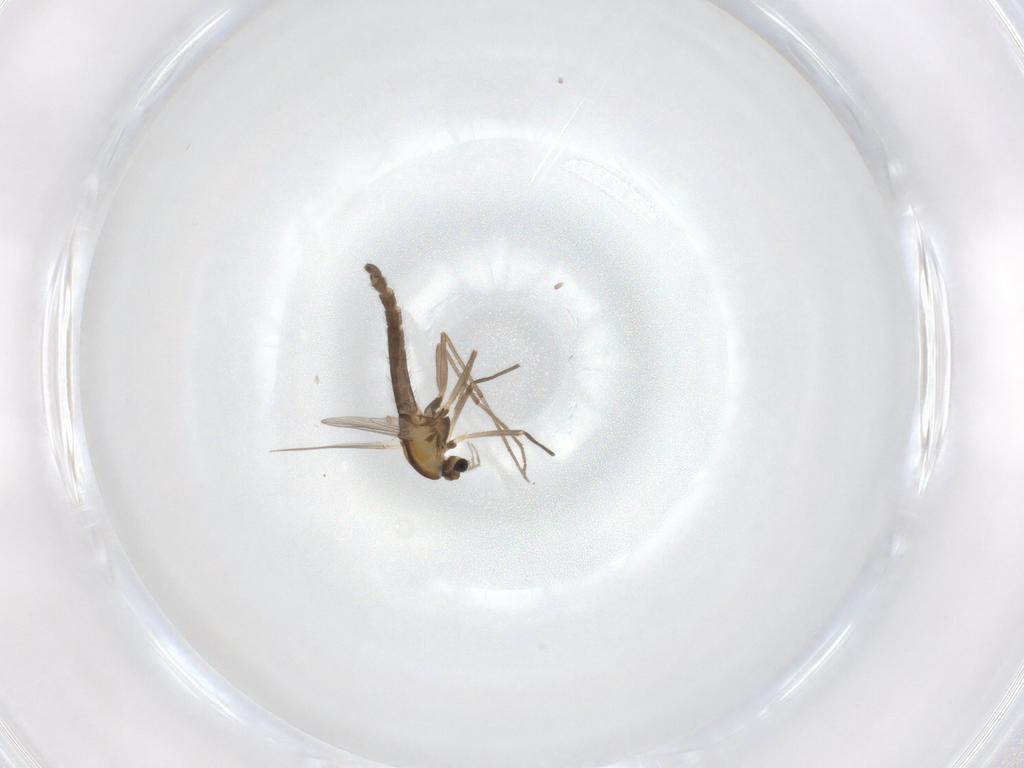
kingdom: Animalia
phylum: Arthropoda
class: Insecta
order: Diptera
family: Chironomidae
